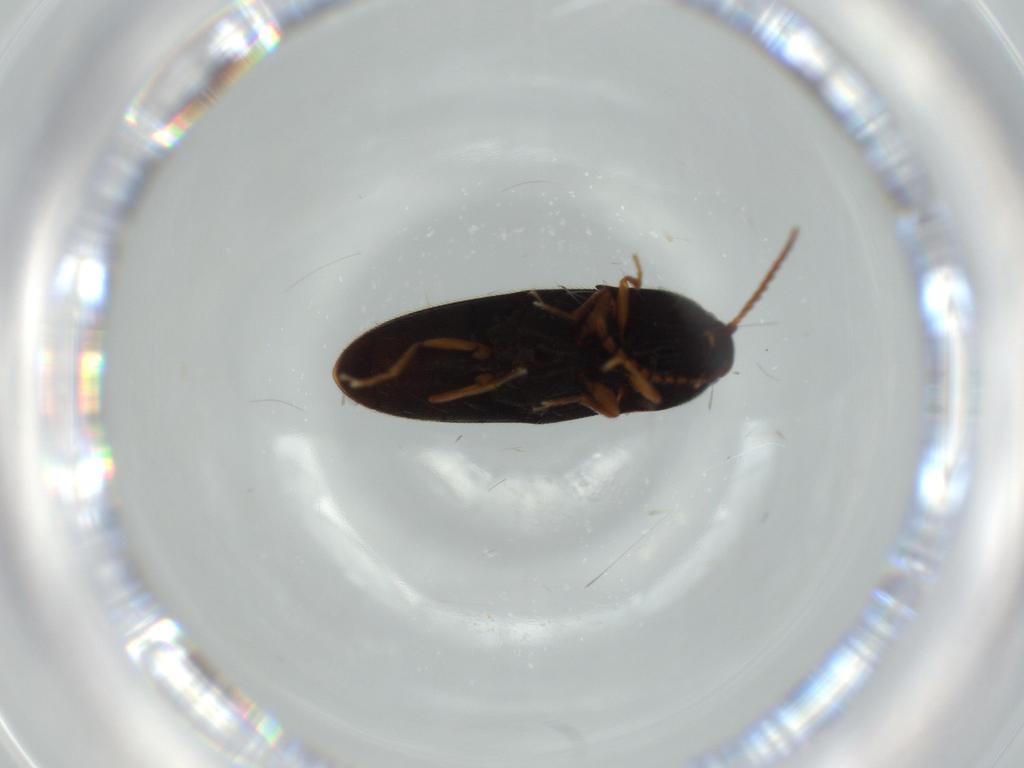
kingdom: Animalia
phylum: Arthropoda
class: Insecta
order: Coleoptera
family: Elateridae
